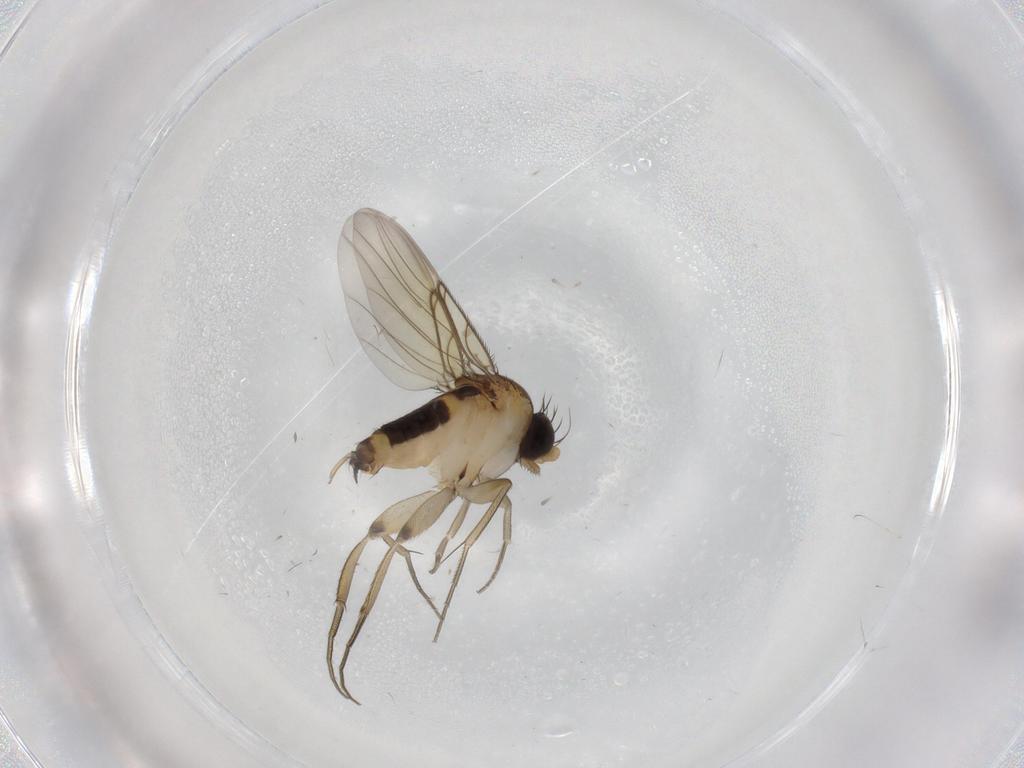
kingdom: Animalia
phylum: Arthropoda
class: Insecta
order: Diptera
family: Phoridae
